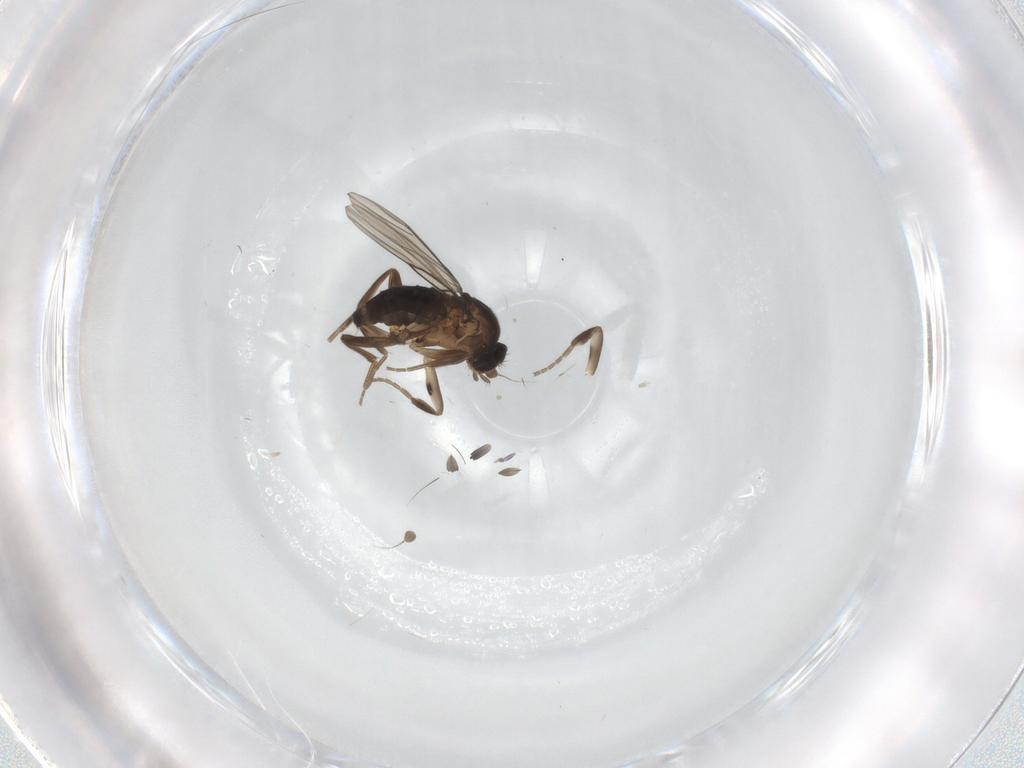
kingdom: Animalia
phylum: Arthropoda
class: Insecta
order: Diptera
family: Phoridae
